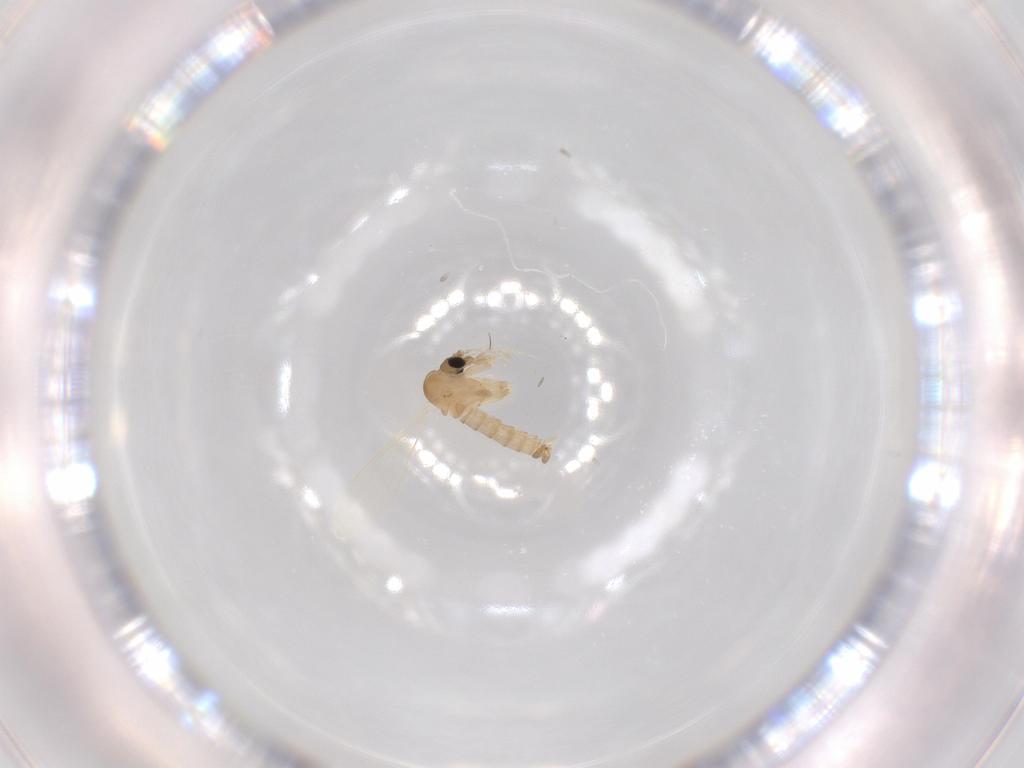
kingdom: Animalia
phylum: Arthropoda
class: Insecta
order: Diptera
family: Psychodidae
